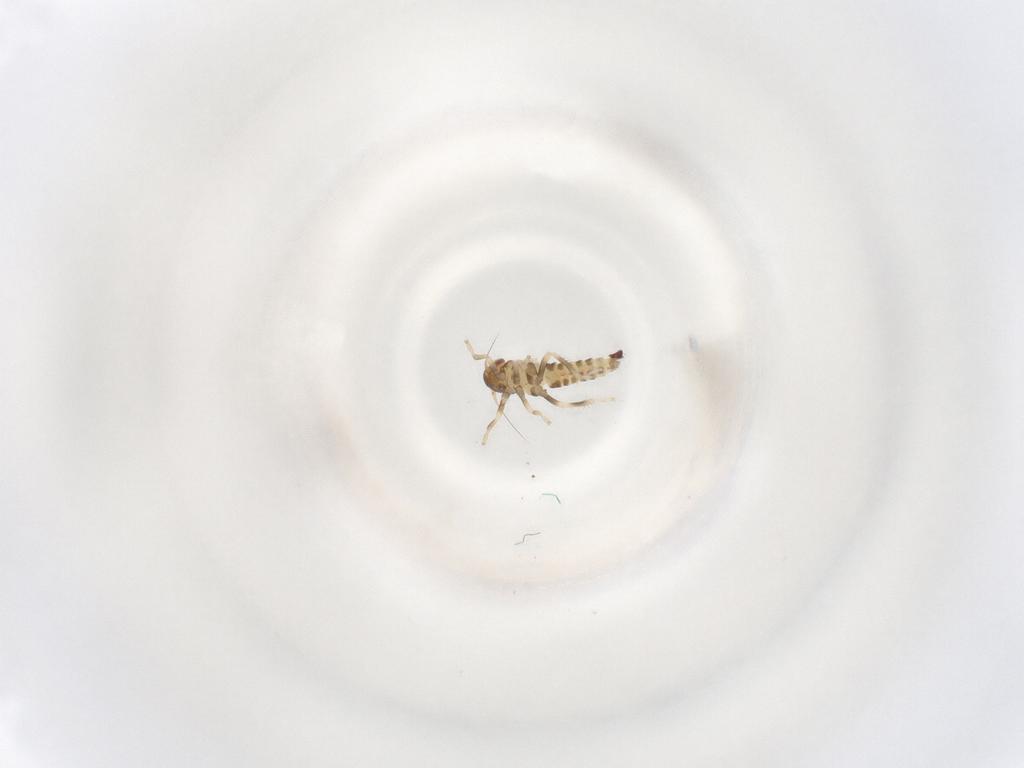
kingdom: Animalia
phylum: Arthropoda
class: Insecta
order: Hemiptera
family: Cicadellidae
